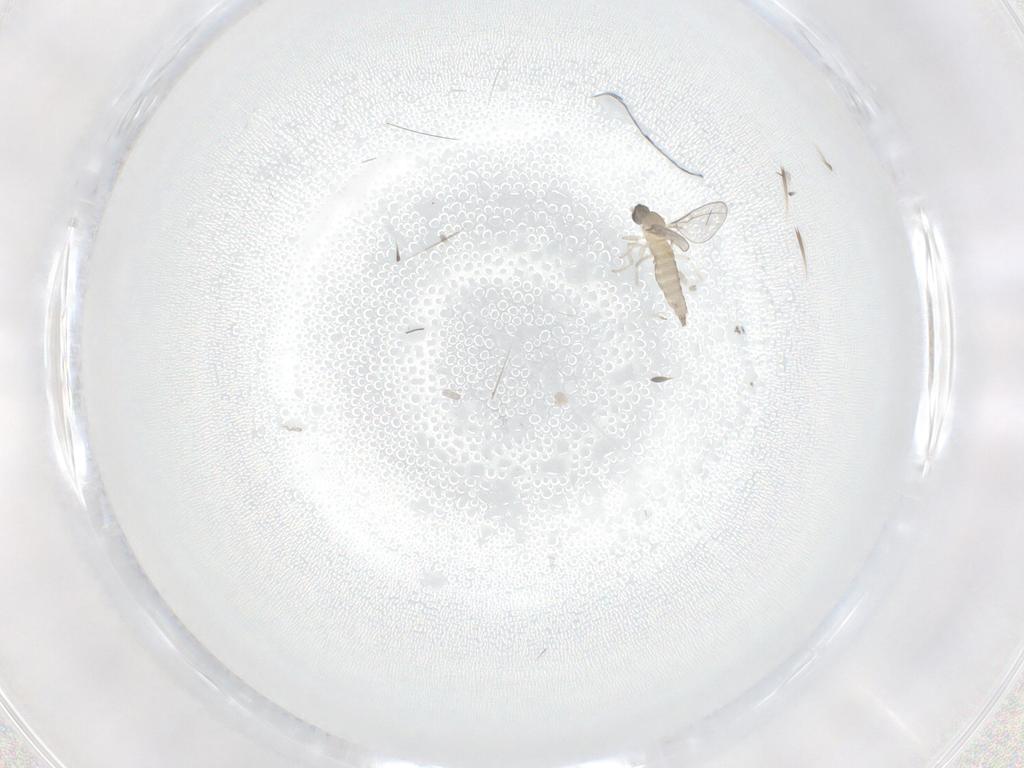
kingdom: Animalia
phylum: Arthropoda
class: Insecta
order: Diptera
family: Cecidomyiidae
